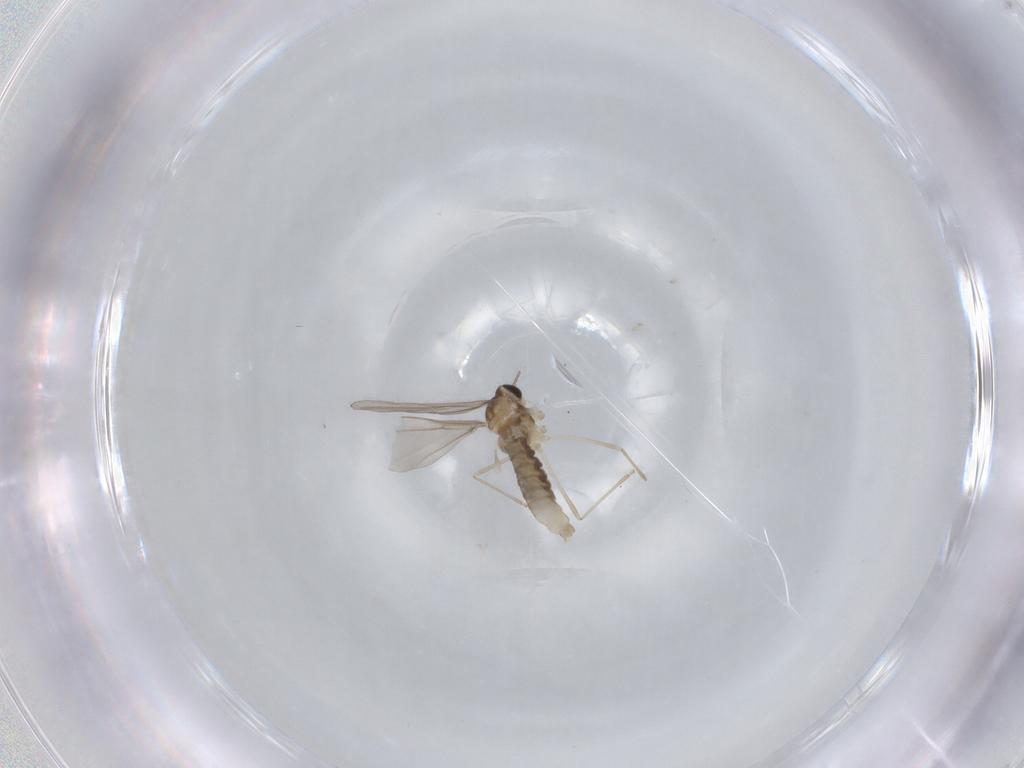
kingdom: Animalia
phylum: Arthropoda
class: Insecta
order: Diptera
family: Cecidomyiidae
